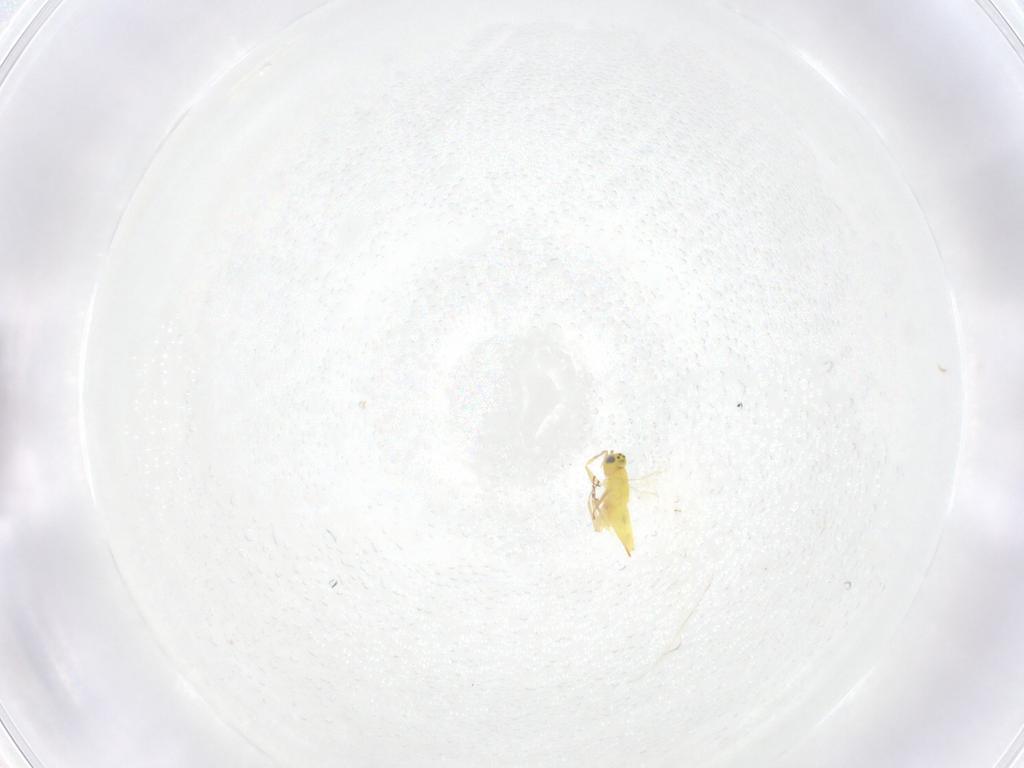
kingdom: Animalia
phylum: Arthropoda
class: Insecta
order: Hymenoptera
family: Aphelinidae
